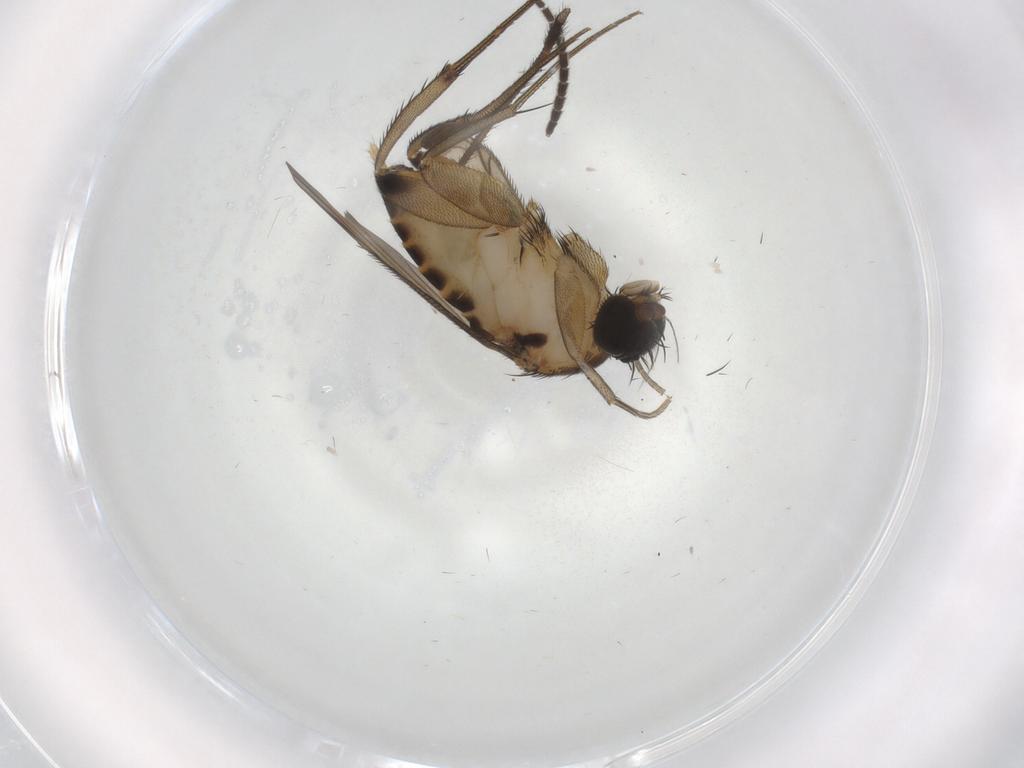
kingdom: Animalia
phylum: Arthropoda
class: Insecta
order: Diptera
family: Phoridae
